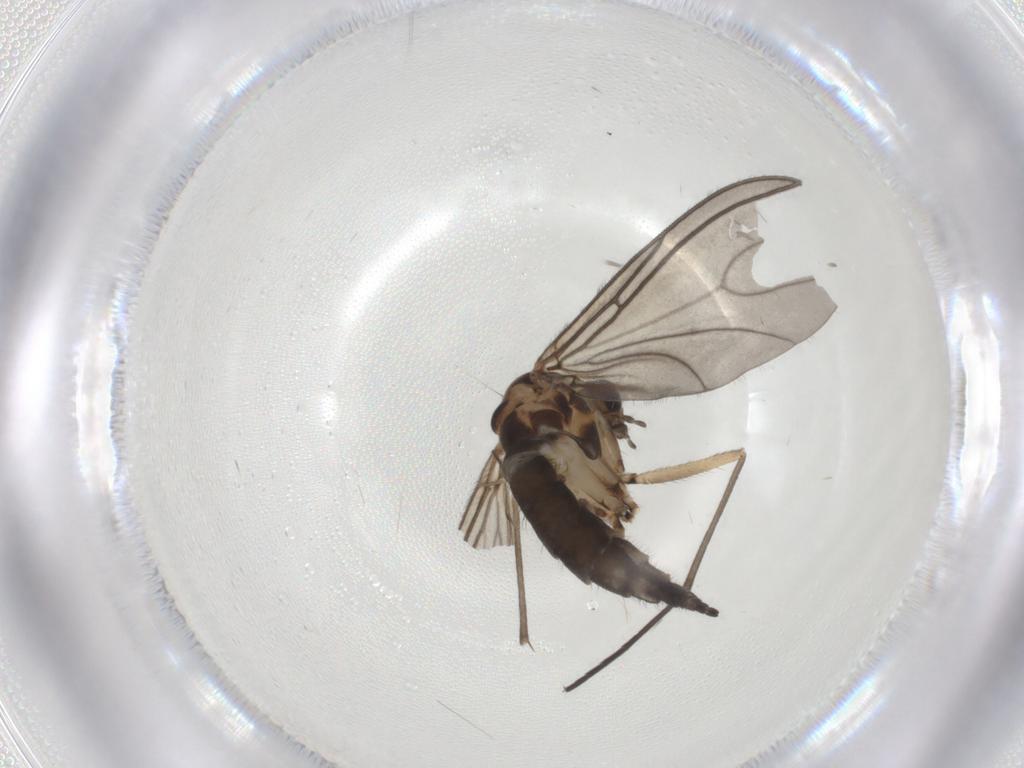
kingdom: Animalia
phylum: Arthropoda
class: Insecta
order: Diptera
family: Sciaridae
